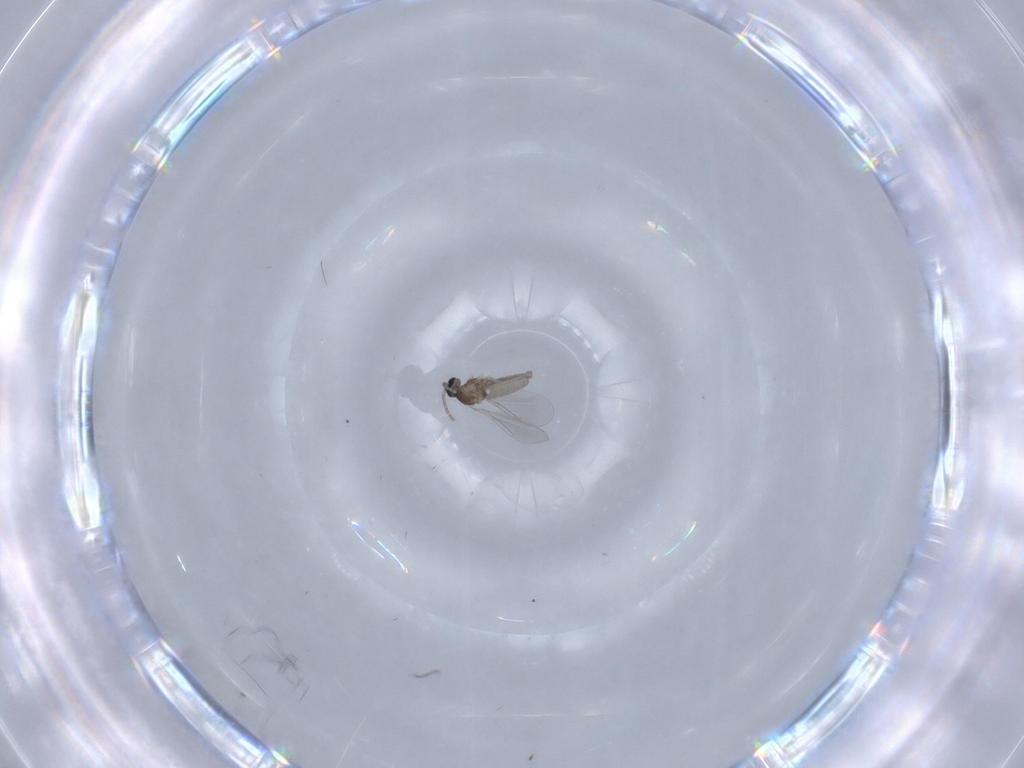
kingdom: Animalia
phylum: Arthropoda
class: Insecta
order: Diptera
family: Cecidomyiidae
